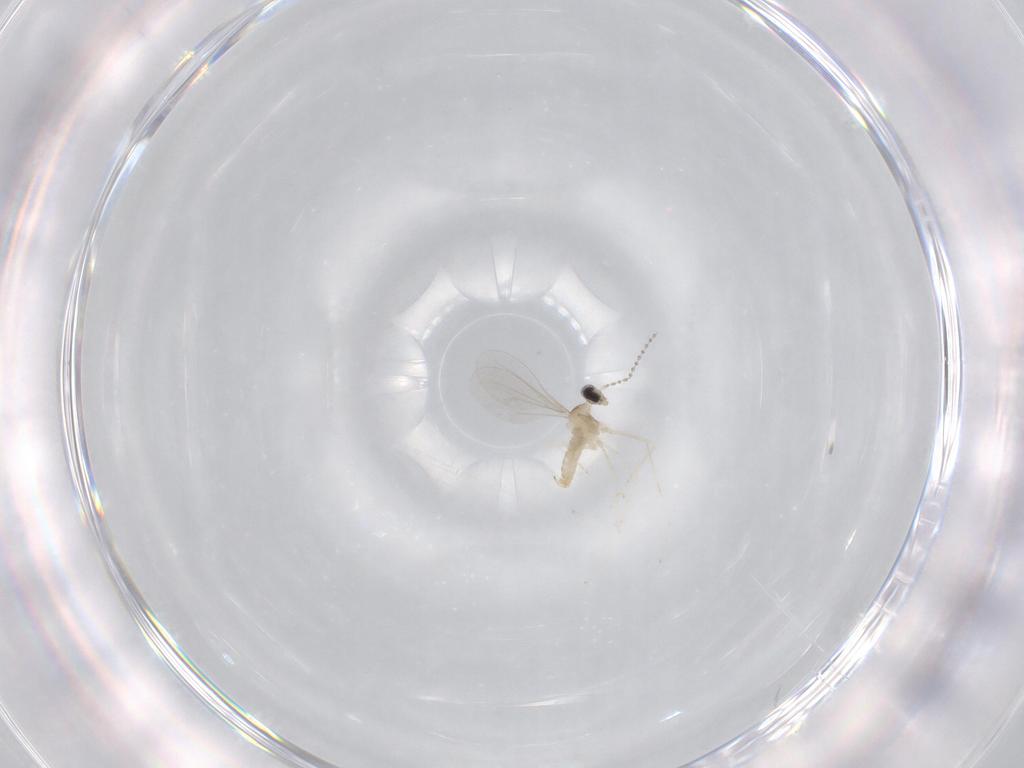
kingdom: Animalia
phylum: Arthropoda
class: Insecta
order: Diptera
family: Cecidomyiidae
